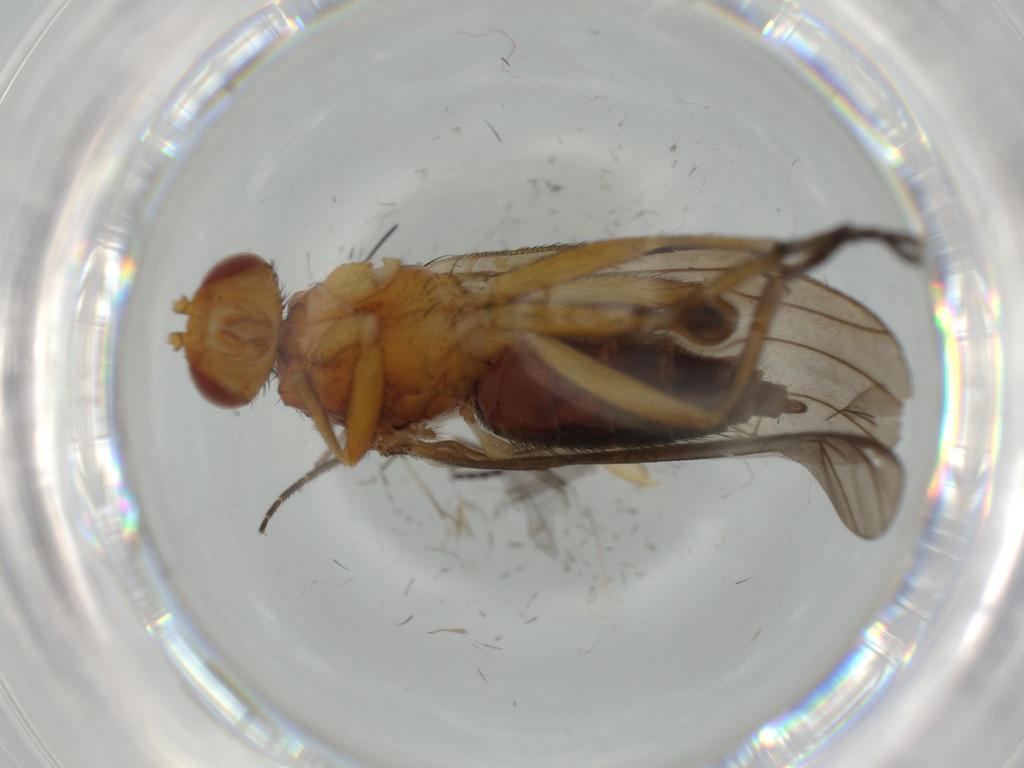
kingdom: Animalia
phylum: Arthropoda
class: Insecta
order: Diptera
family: Heleomyzidae
